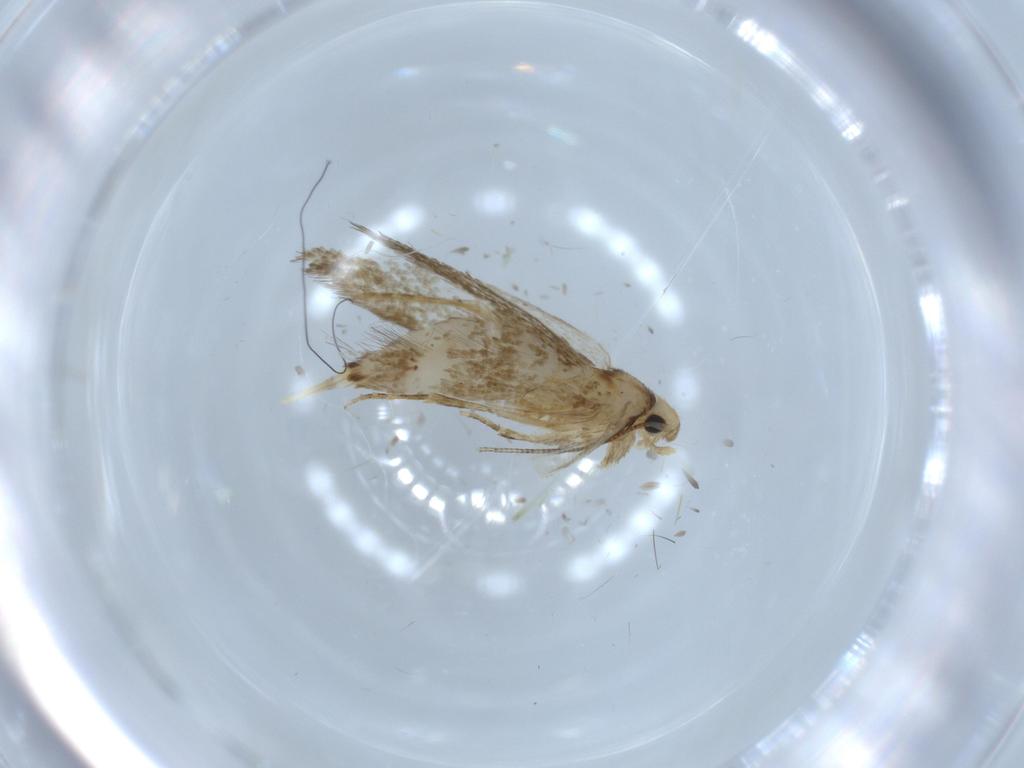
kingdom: Animalia
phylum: Arthropoda
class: Insecta
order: Lepidoptera
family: Tineidae
